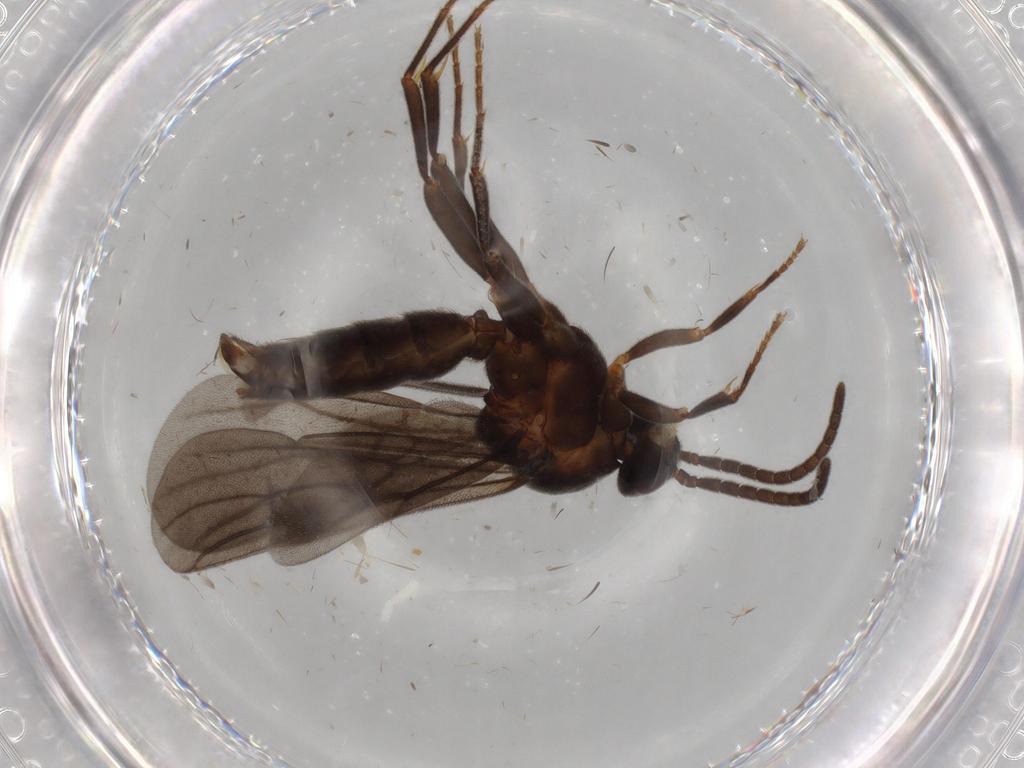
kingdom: Animalia
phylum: Arthropoda
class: Insecta
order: Hymenoptera
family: Formicidae
